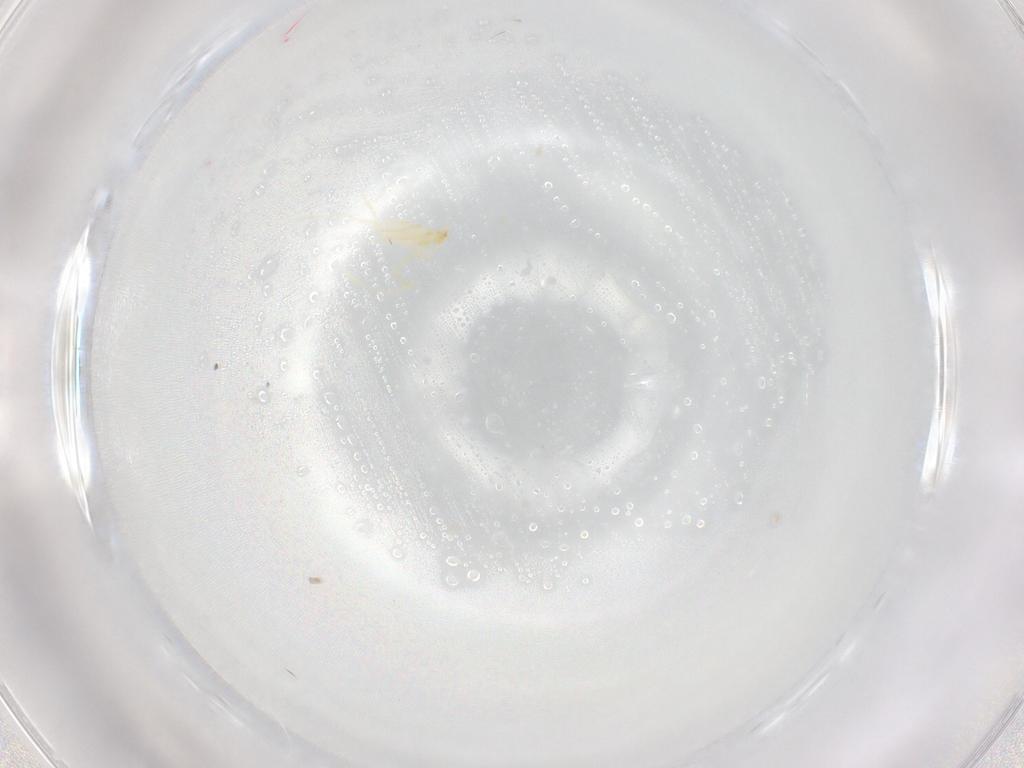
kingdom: Animalia
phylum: Arthropoda
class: Arachnida
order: Trombidiformes
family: Erythraeidae
